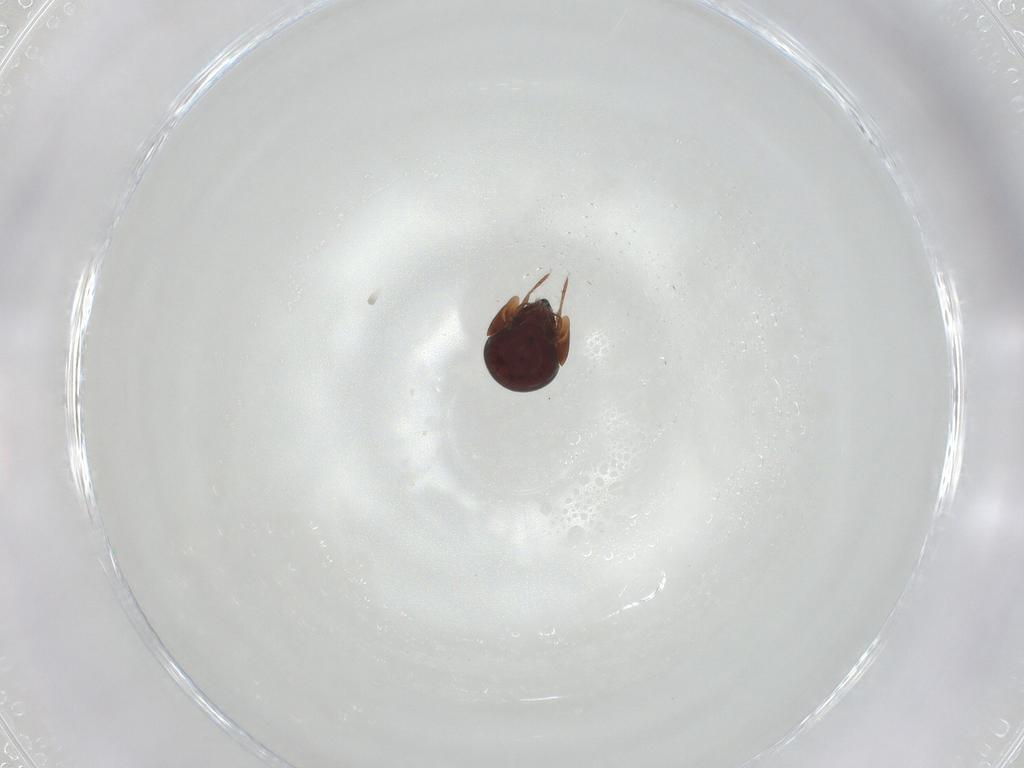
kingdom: Animalia
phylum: Arthropoda
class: Arachnida
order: Sarcoptiformes
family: Galumnidae
